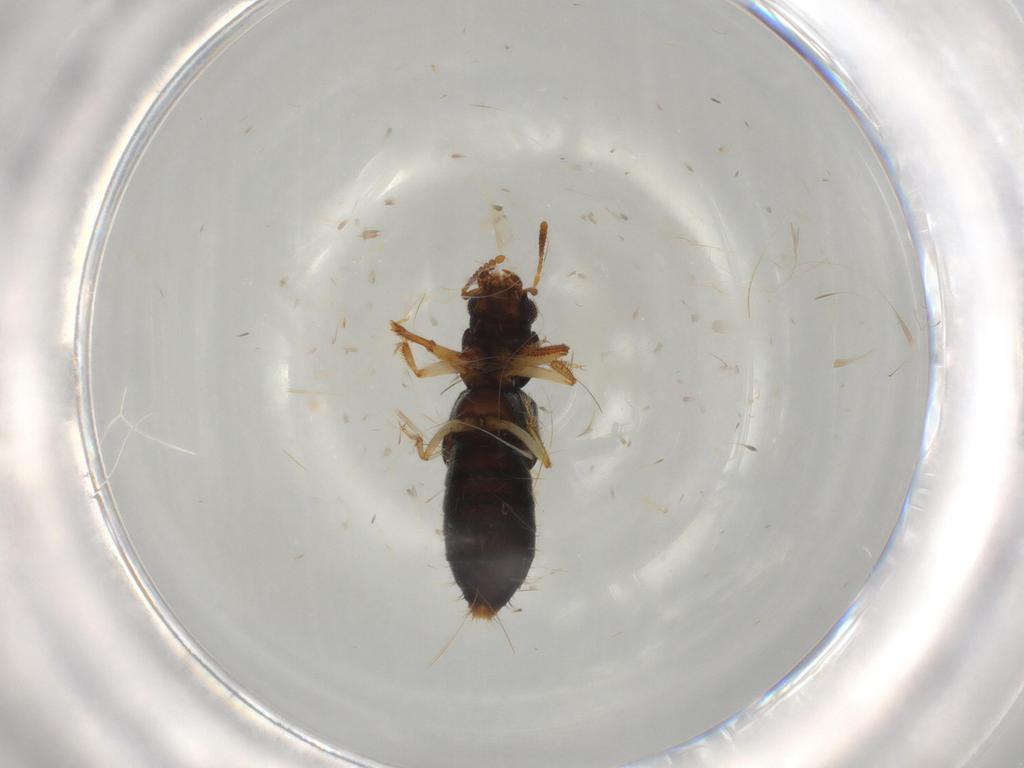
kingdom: Animalia
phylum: Arthropoda
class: Insecta
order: Coleoptera
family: Staphylinidae
